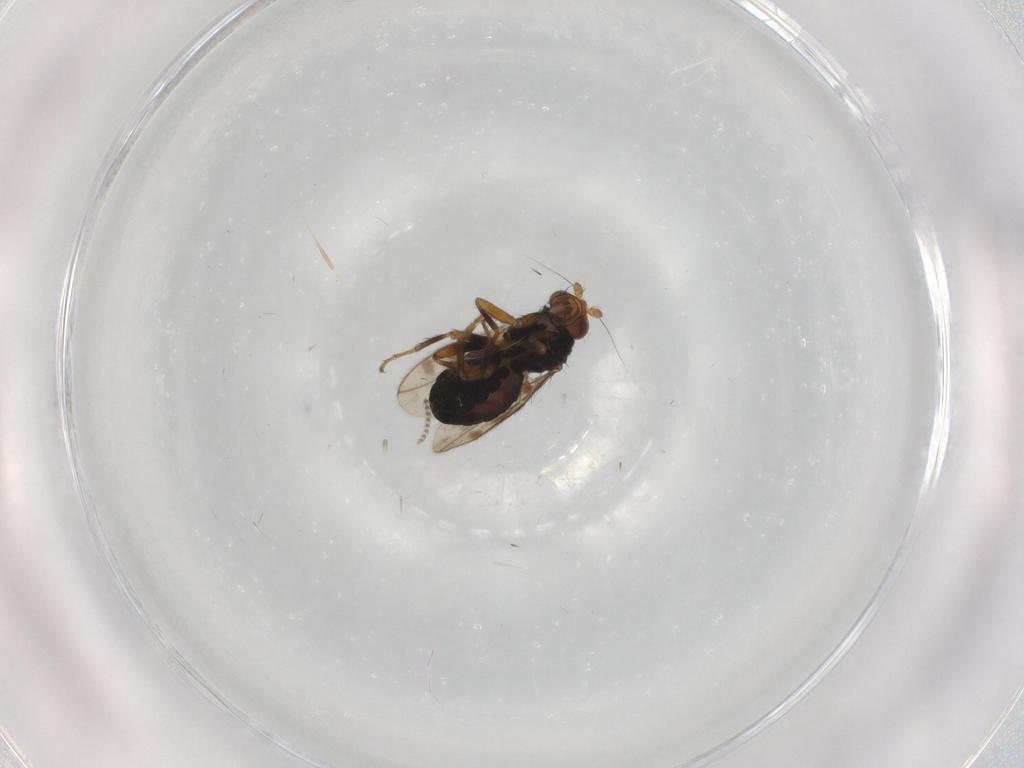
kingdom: Animalia
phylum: Arthropoda
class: Insecta
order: Diptera
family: Sphaeroceridae
